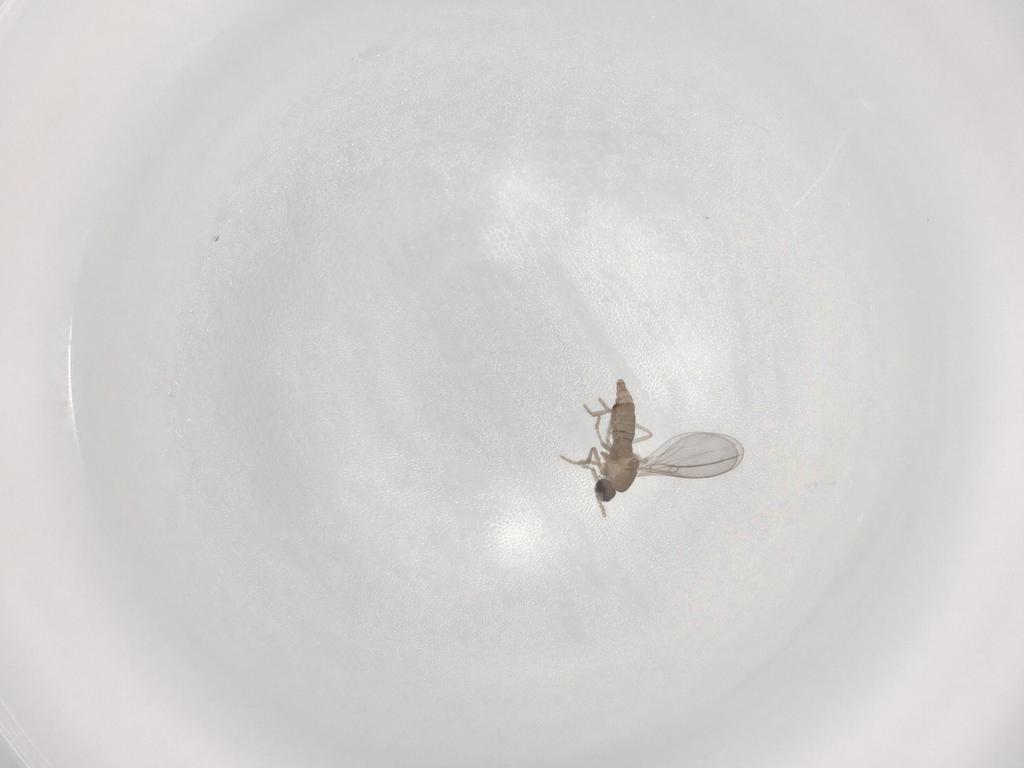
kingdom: Animalia
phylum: Arthropoda
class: Insecta
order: Diptera
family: Cecidomyiidae
